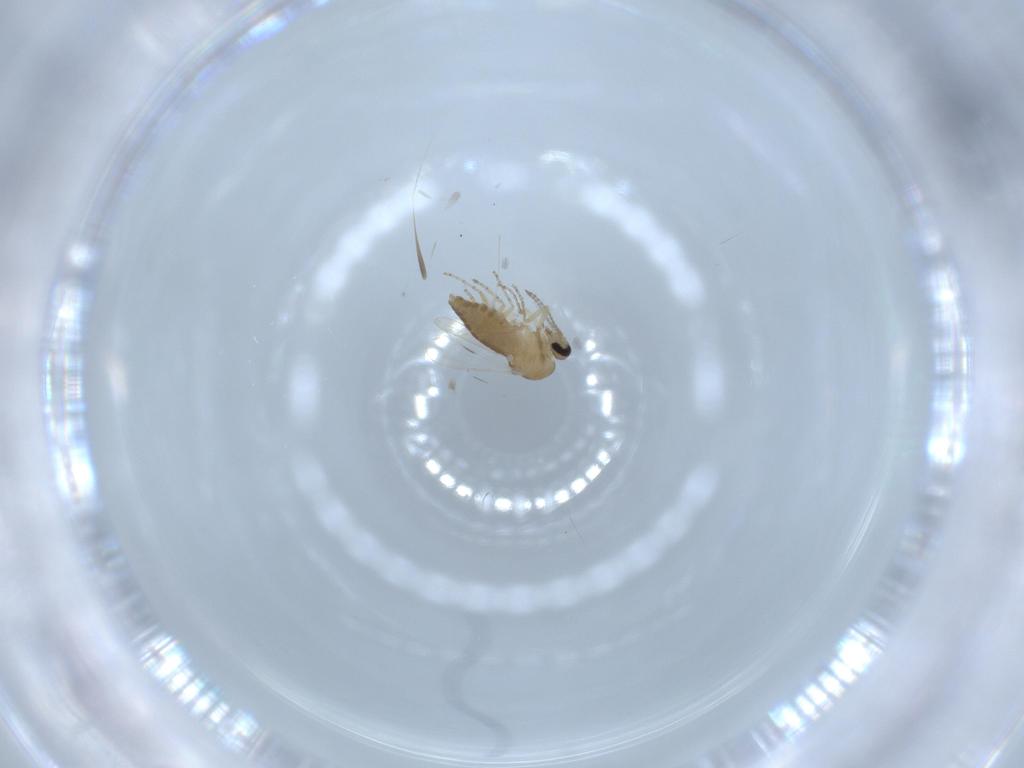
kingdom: Animalia
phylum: Arthropoda
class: Insecta
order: Diptera
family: Ceratopogonidae
